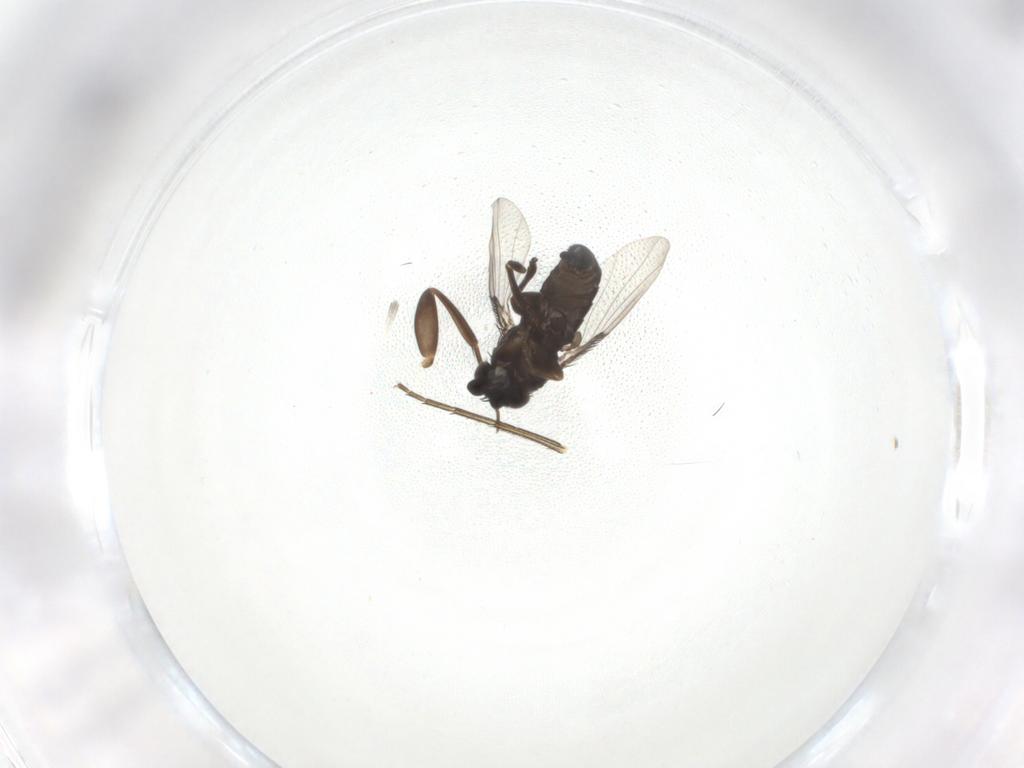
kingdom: Animalia
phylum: Arthropoda
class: Insecta
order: Diptera
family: Phoridae
